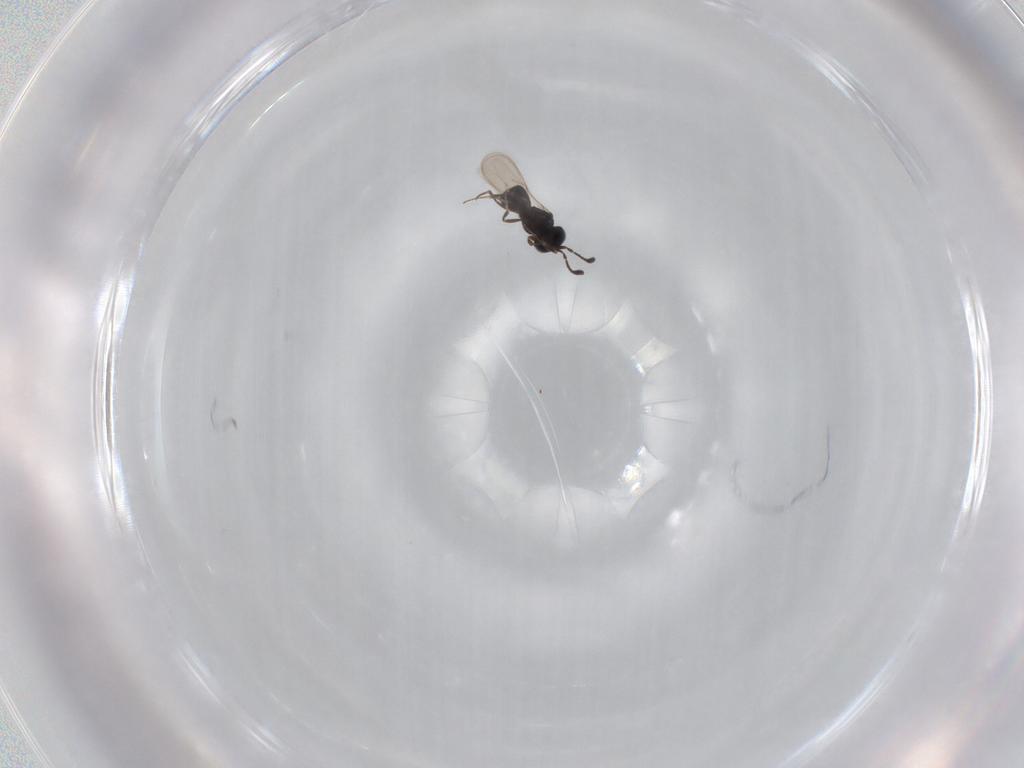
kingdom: Animalia
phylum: Arthropoda
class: Insecta
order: Hymenoptera
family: Scelionidae
